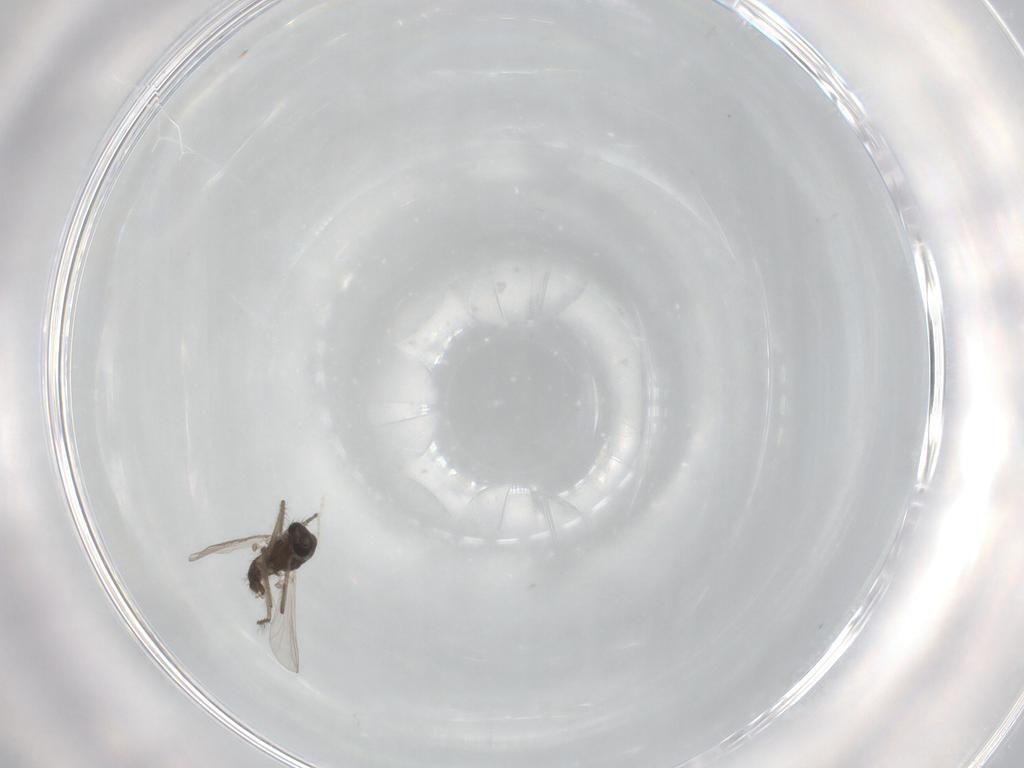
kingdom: Animalia
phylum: Arthropoda
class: Insecta
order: Diptera
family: Chironomidae
